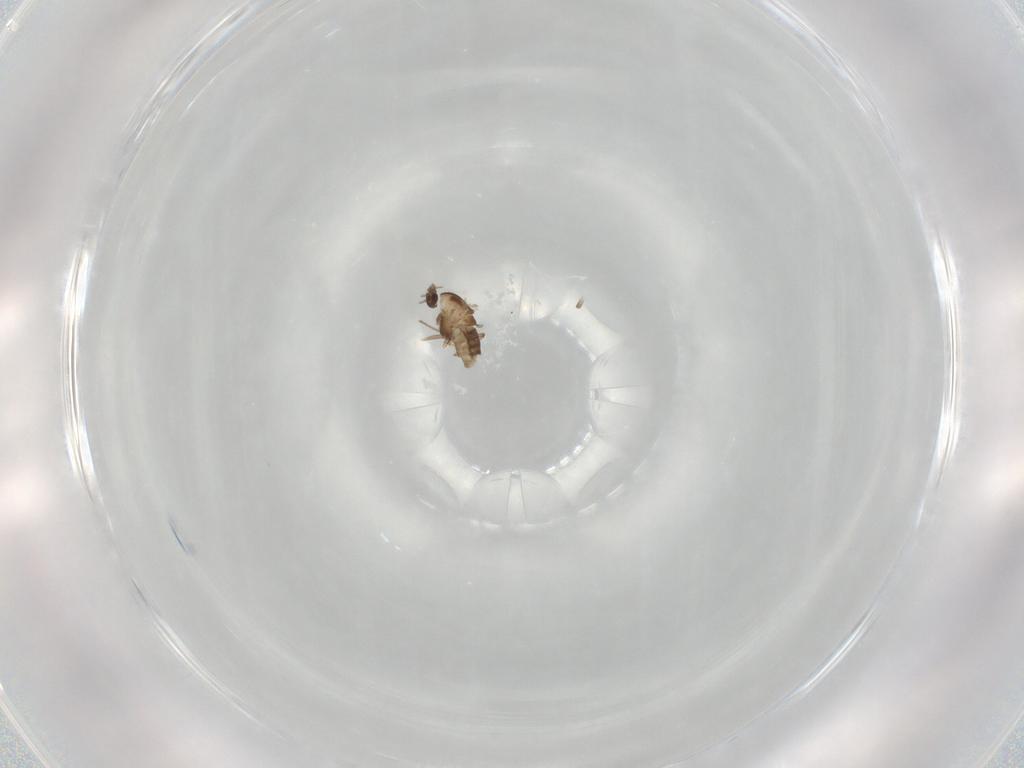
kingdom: Animalia
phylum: Arthropoda
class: Insecta
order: Diptera
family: Chironomidae
